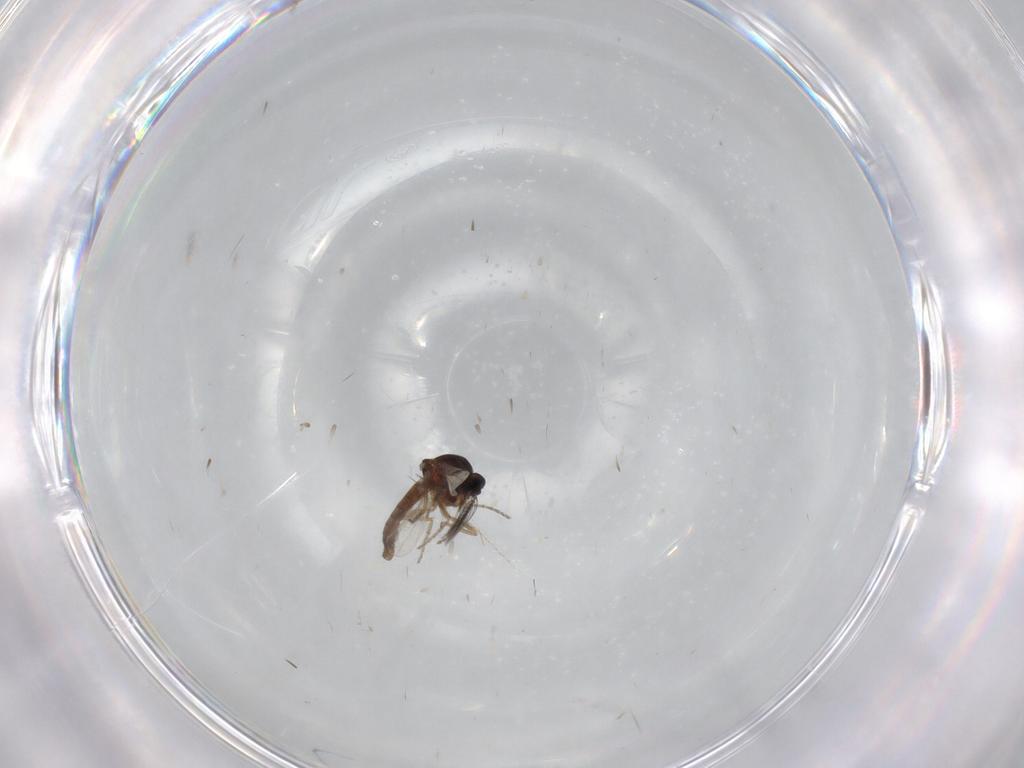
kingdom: Animalia
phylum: Arthropoda
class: Insecta
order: Diptera
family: Cecidomyiidae
